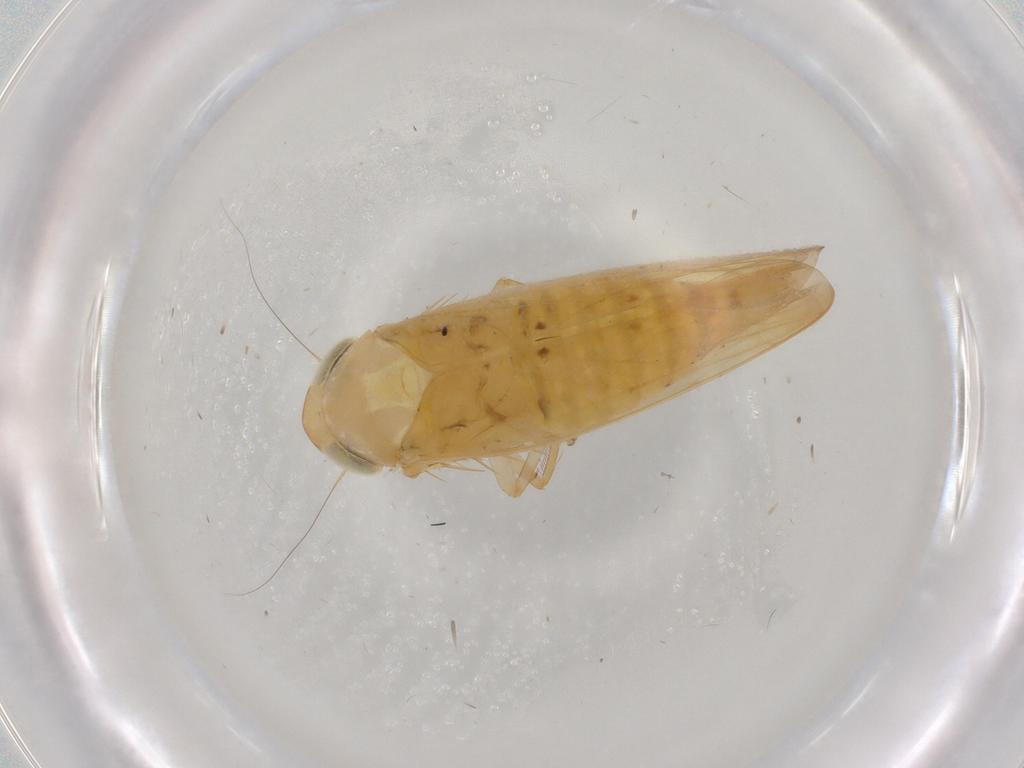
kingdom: Animalia
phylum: Arthropoda
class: Insecta
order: Hemiptera
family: Cicadellidae
